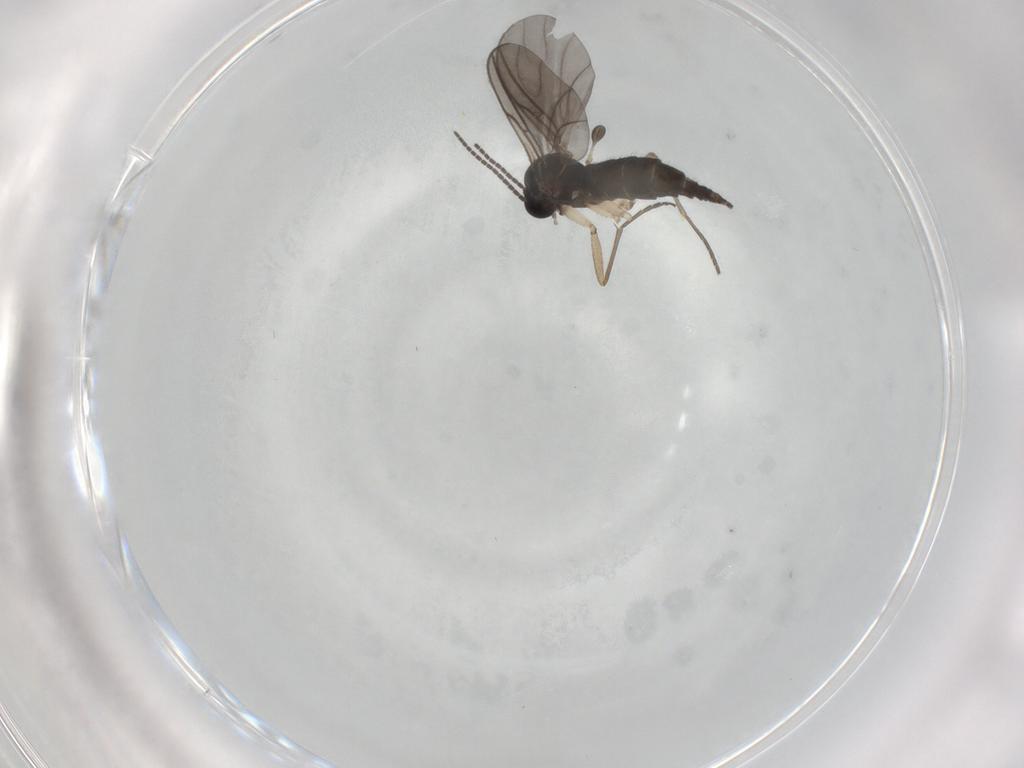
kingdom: Animalia
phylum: Arthropoda
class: Insecta
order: Diptera
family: Sciaridae
